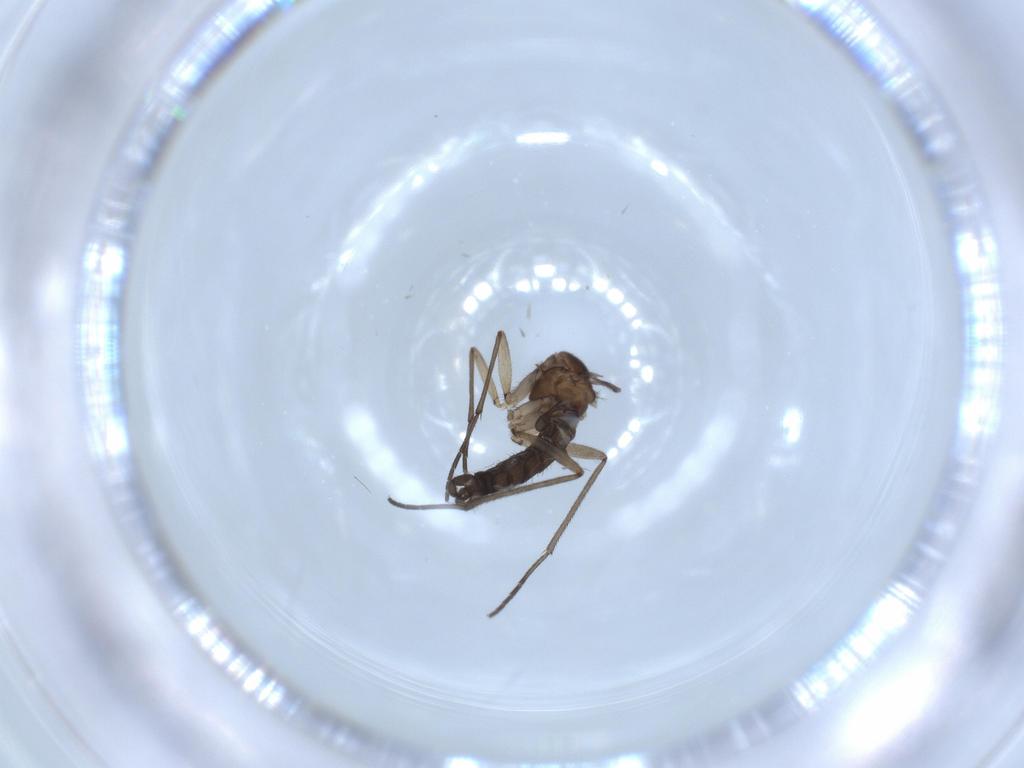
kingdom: Animalia
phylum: Arthropoda
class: Insecta
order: Diptera
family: Sciaridae
